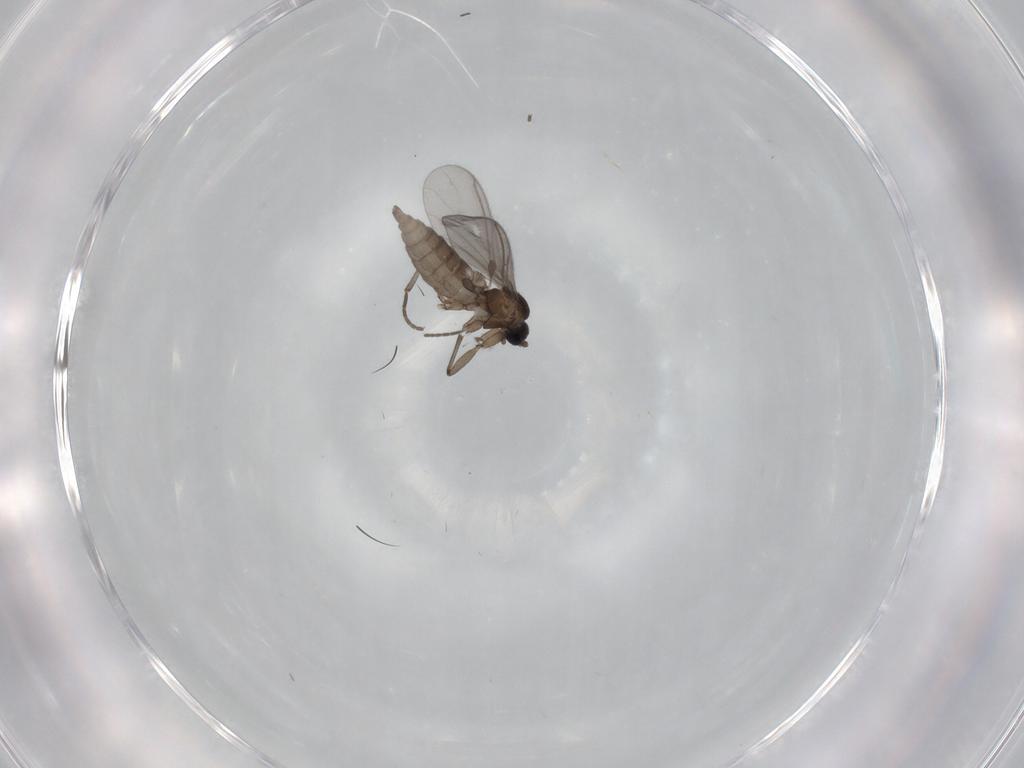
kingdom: Animalia
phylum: Arthropoda
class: Insecta
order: Diptera
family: Sciaridae
